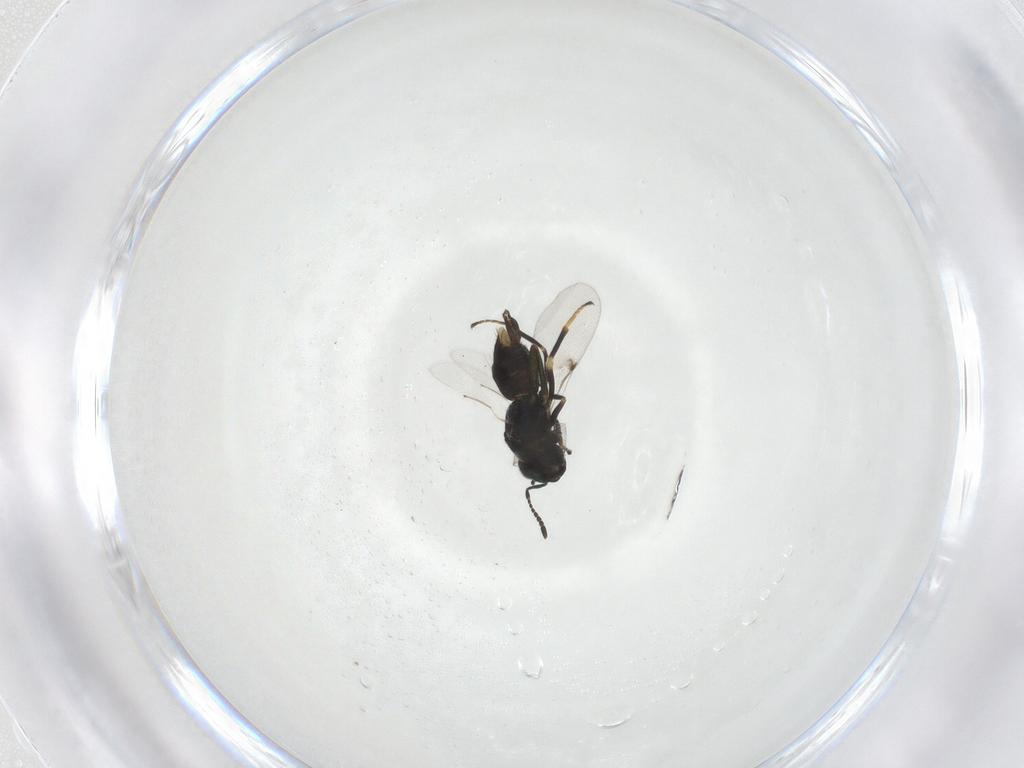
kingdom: Animalia
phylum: Arthropoda
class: Insecta
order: Hymenoptera
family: Encyrtidae
